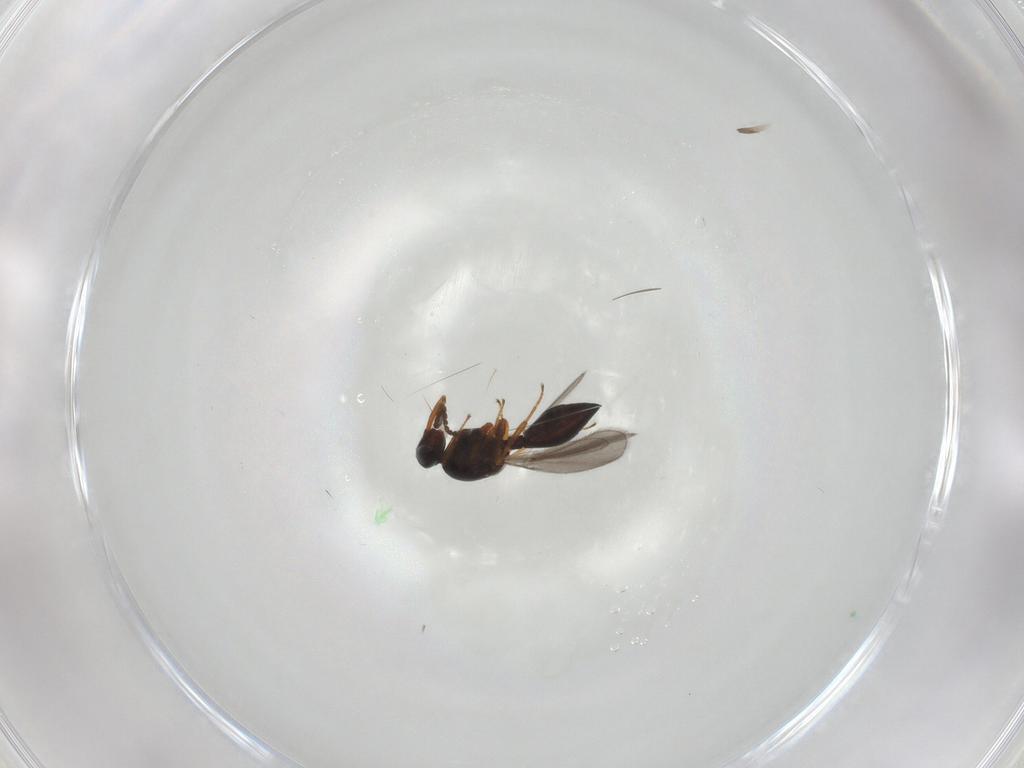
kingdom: Animalia
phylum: Arthropoda
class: Insecta
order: Hymenoptera
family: Platygastridae
